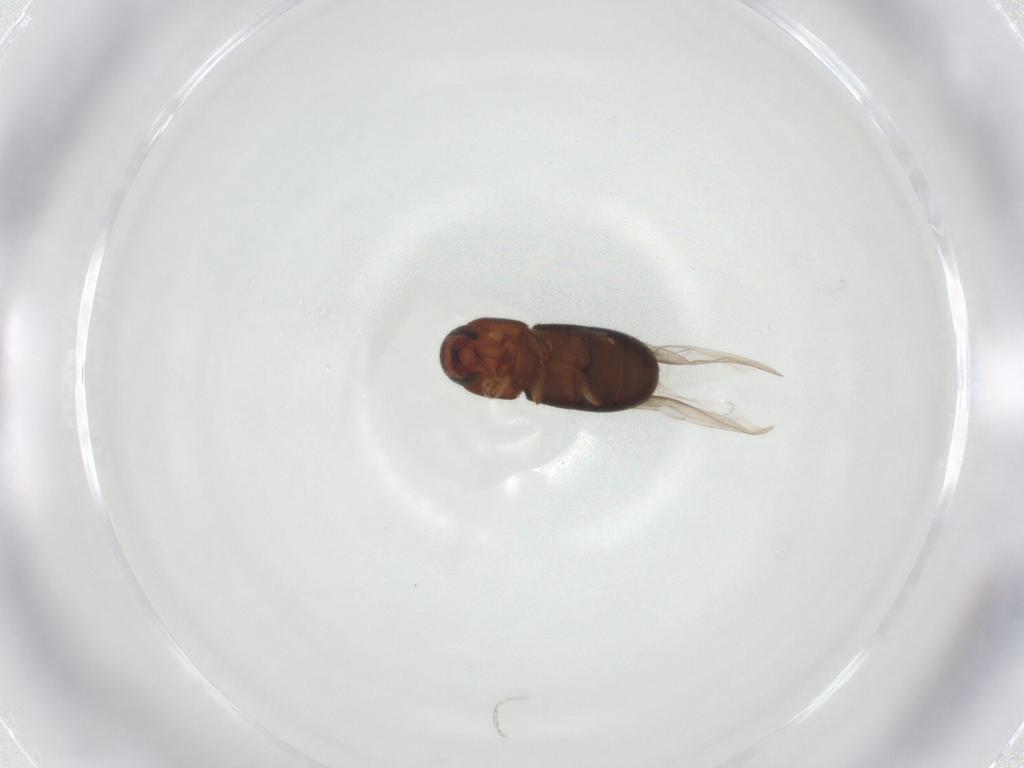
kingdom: Animalia
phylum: Arthropoda
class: Insecta
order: Coleoptera
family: Curculionidae
